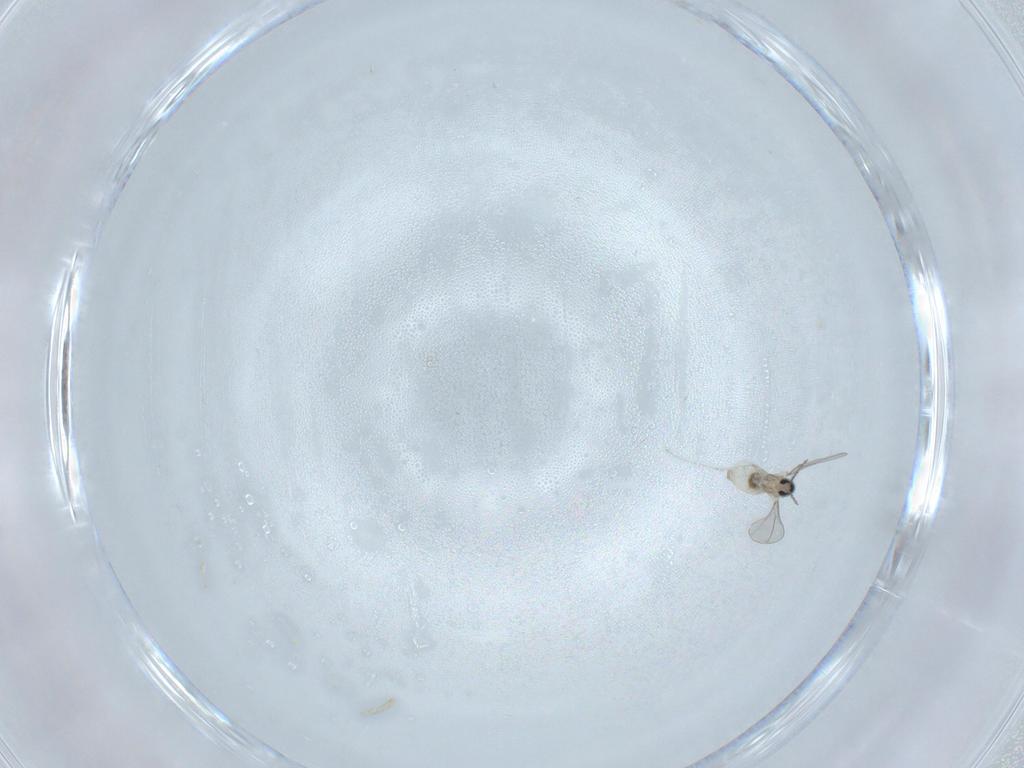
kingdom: Animalia
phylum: Arthropoda
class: Insecta
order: Diptera
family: Cecidomyiidae
